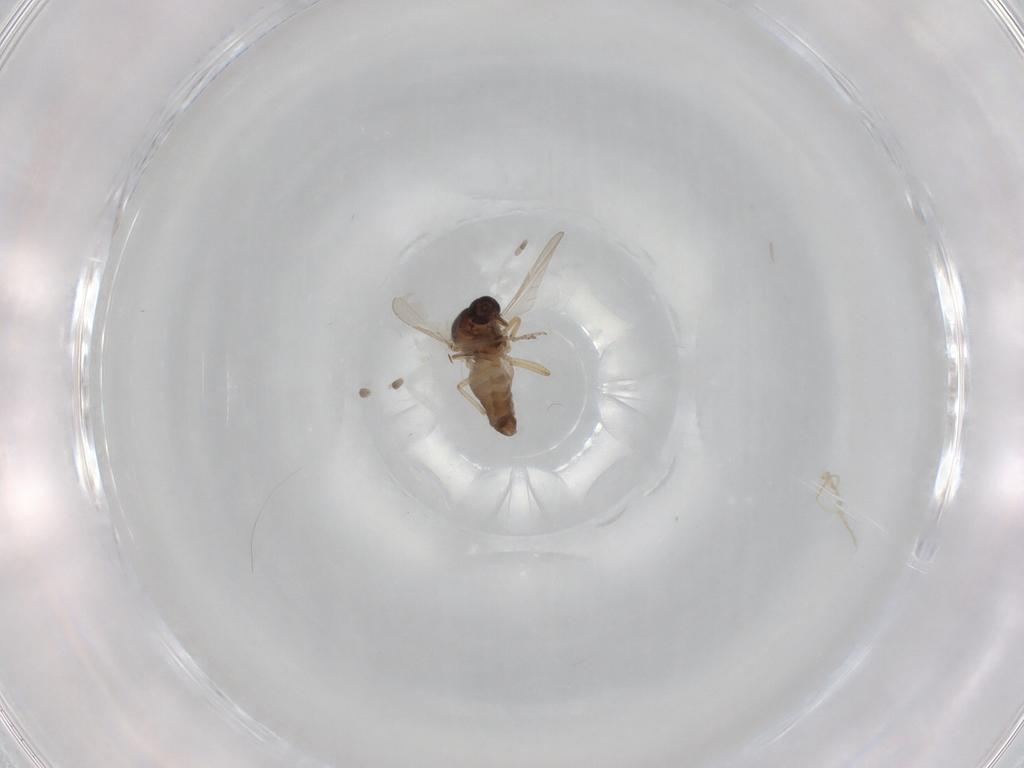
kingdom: Animalia
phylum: Arthropoda
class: Insecta
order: Diptera
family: Ceratopogonidae
